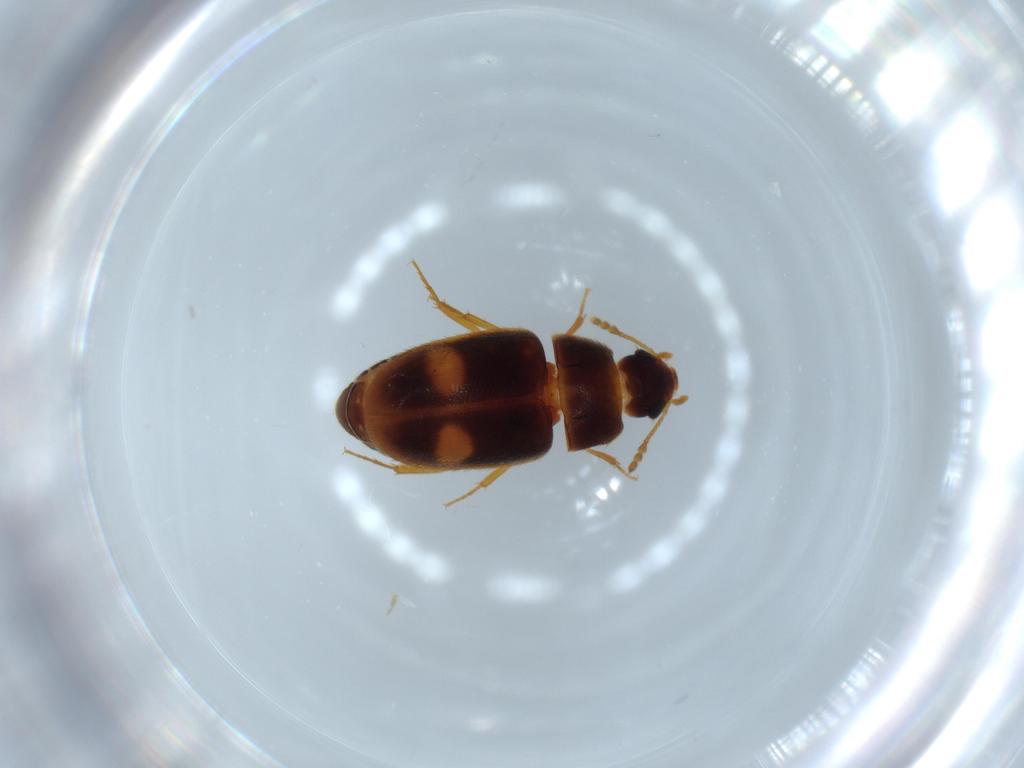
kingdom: Animalia
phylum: Arthropoda
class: Insecta
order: Coleoptera
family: Mycetophagidae
